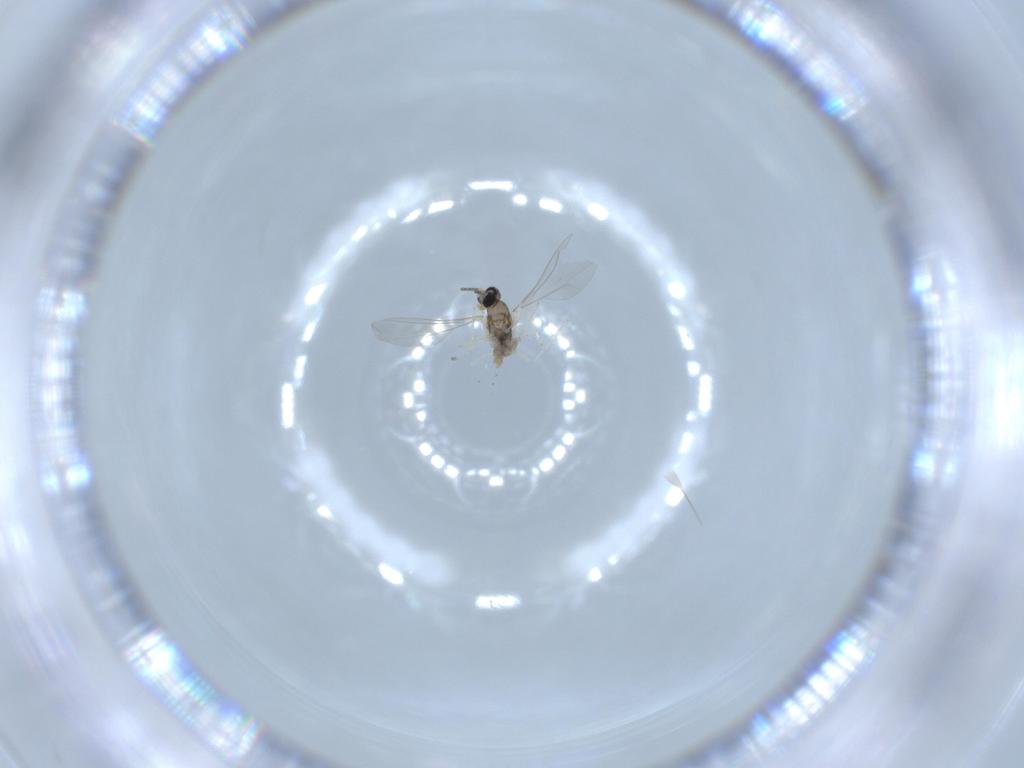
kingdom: Animalia
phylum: Arthropoda
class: Insecta
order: Diptera
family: Cecidomyiidae
